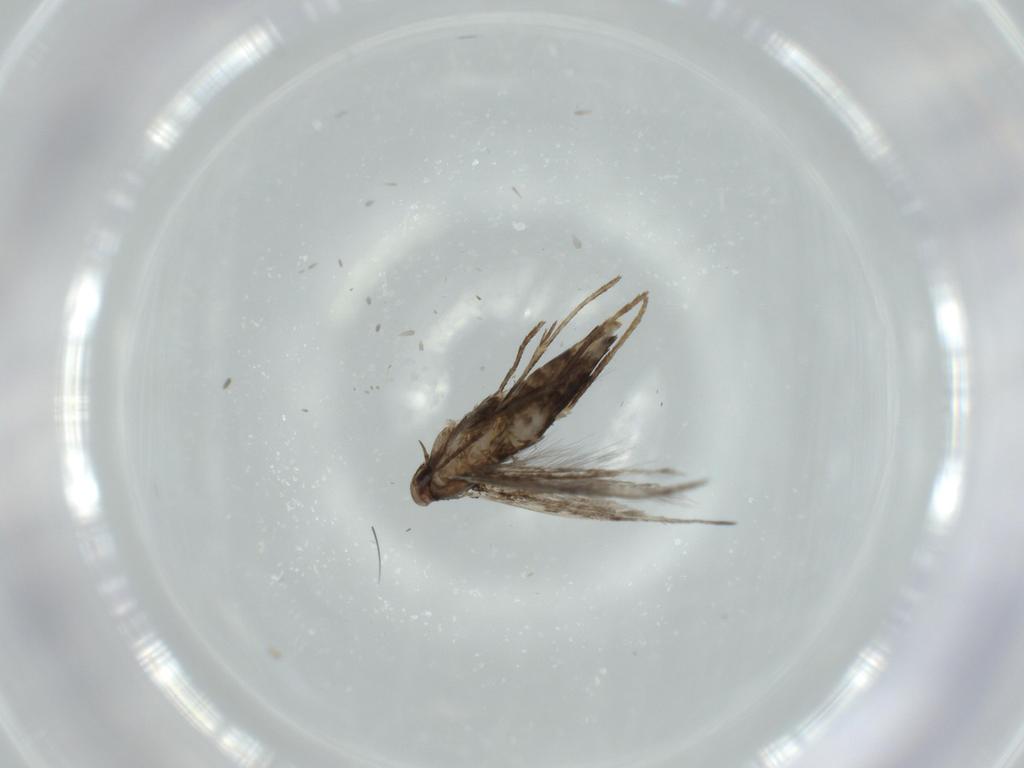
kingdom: Animalia
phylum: Arthropoda
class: Insecta
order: Lepidoptera
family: Gracillariidae
